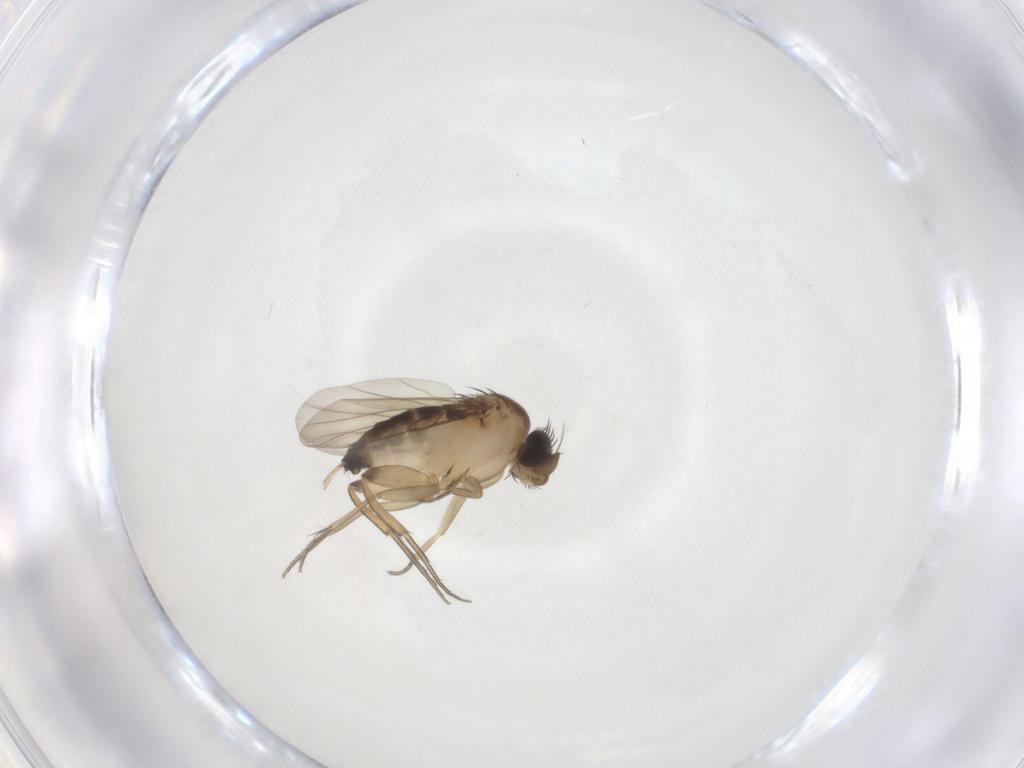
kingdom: Animalia
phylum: Arthropoda
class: Insecta
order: Diptera
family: Phoridae
